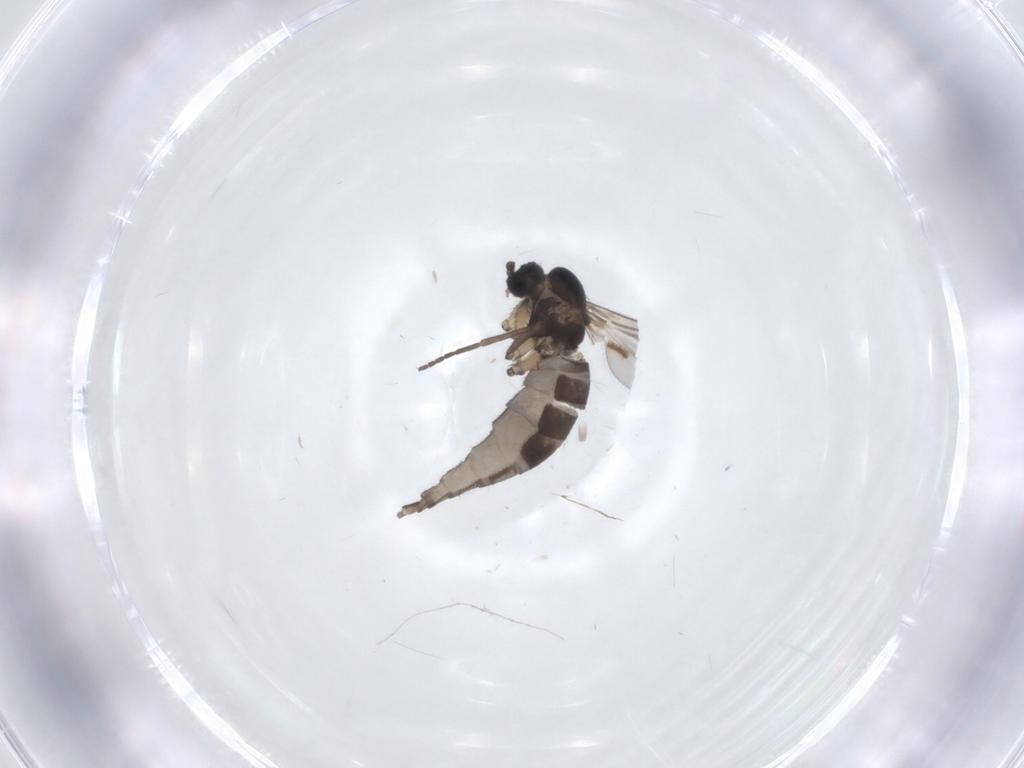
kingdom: Animalia
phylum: Arthropoda
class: Insecta
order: Diptera
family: Sciaridae
